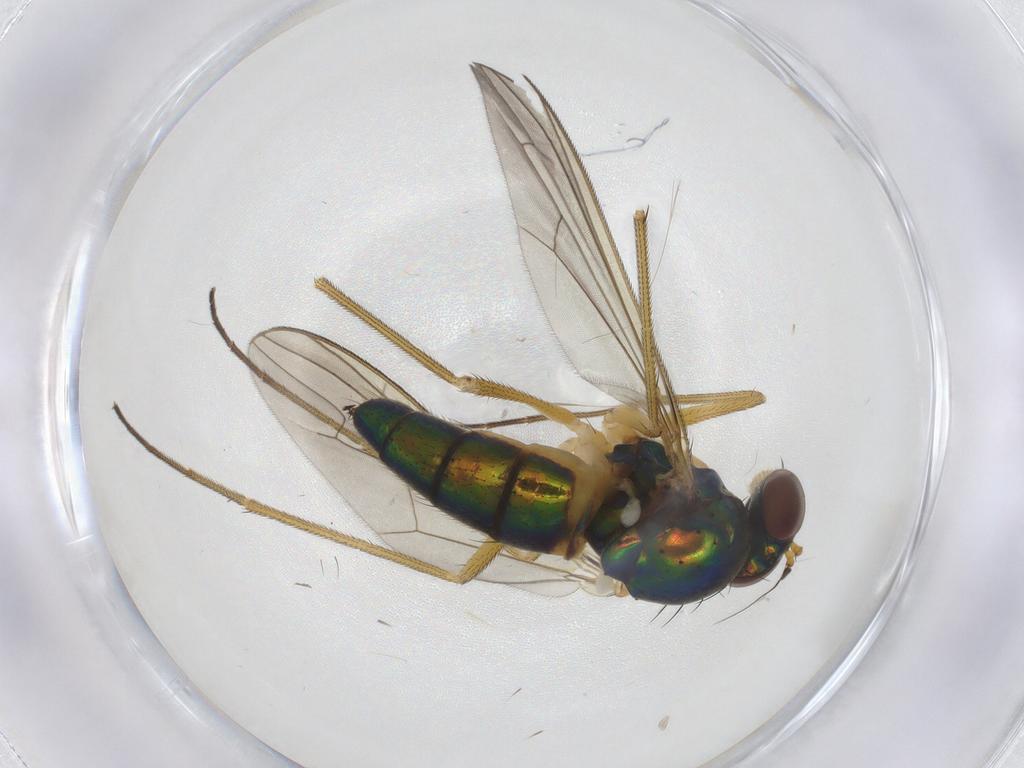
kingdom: Animalia
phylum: Arthropoda
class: Insecta
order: Diptera
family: Dolichopodidae
